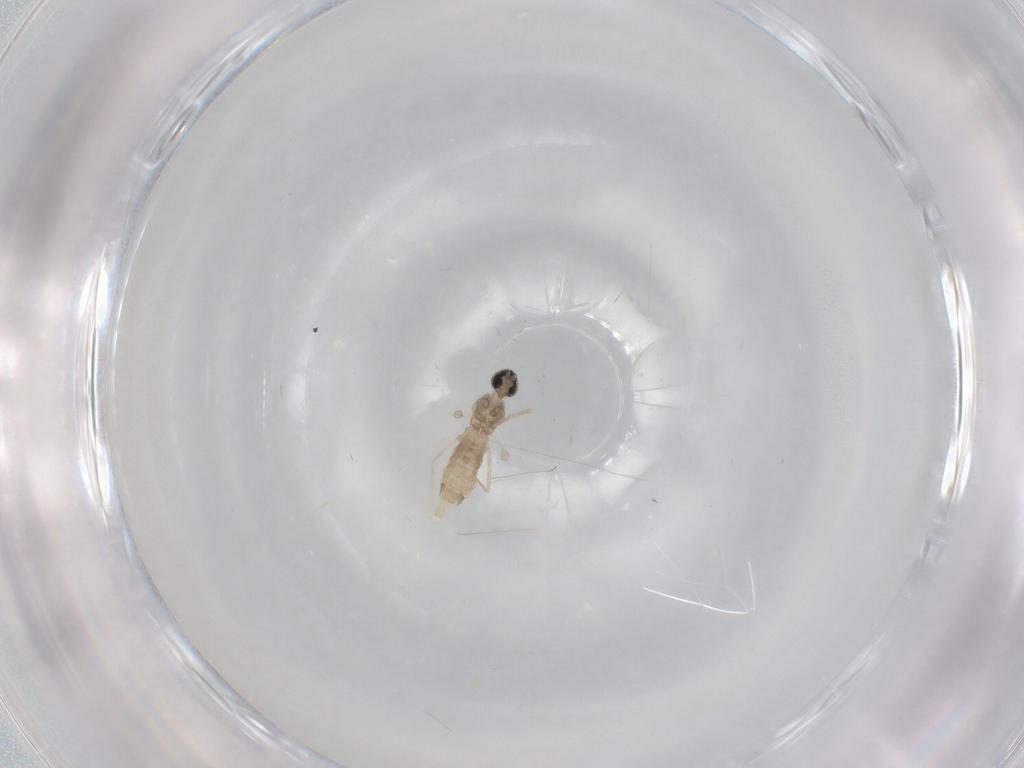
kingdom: Animalia
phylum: Arthropoda
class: Insecta
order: Diptera
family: Cecidomyiidae
